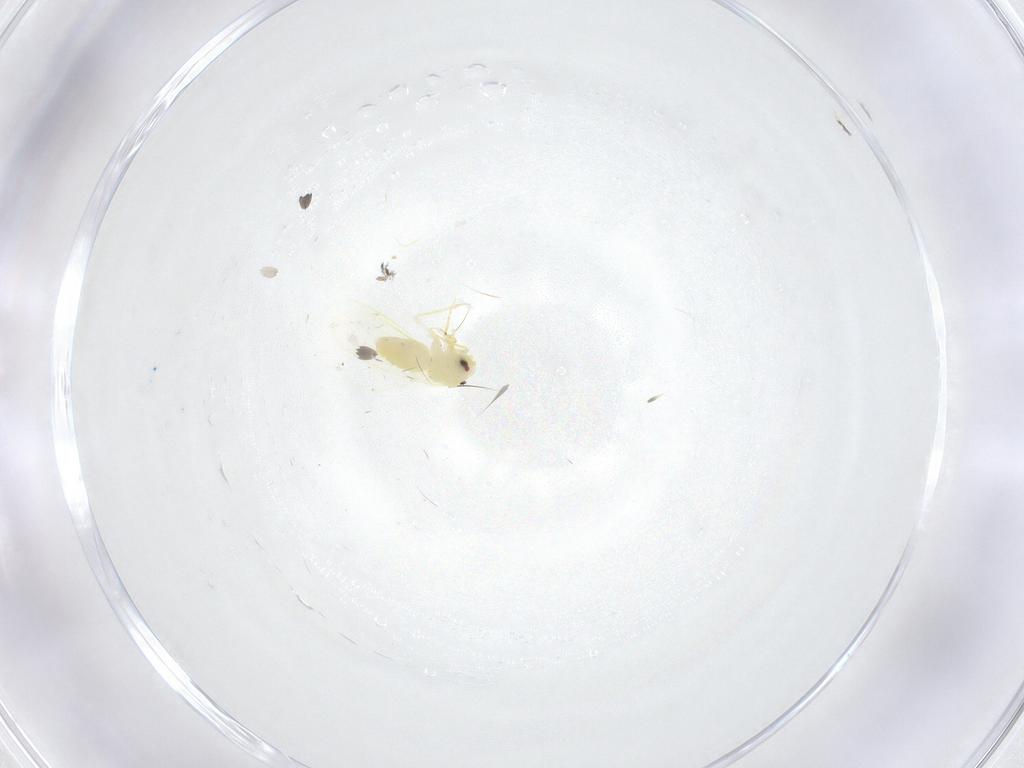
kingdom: Animalia
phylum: Arthropoda
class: Insecta
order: Hemiptera
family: Aleyrodidae
